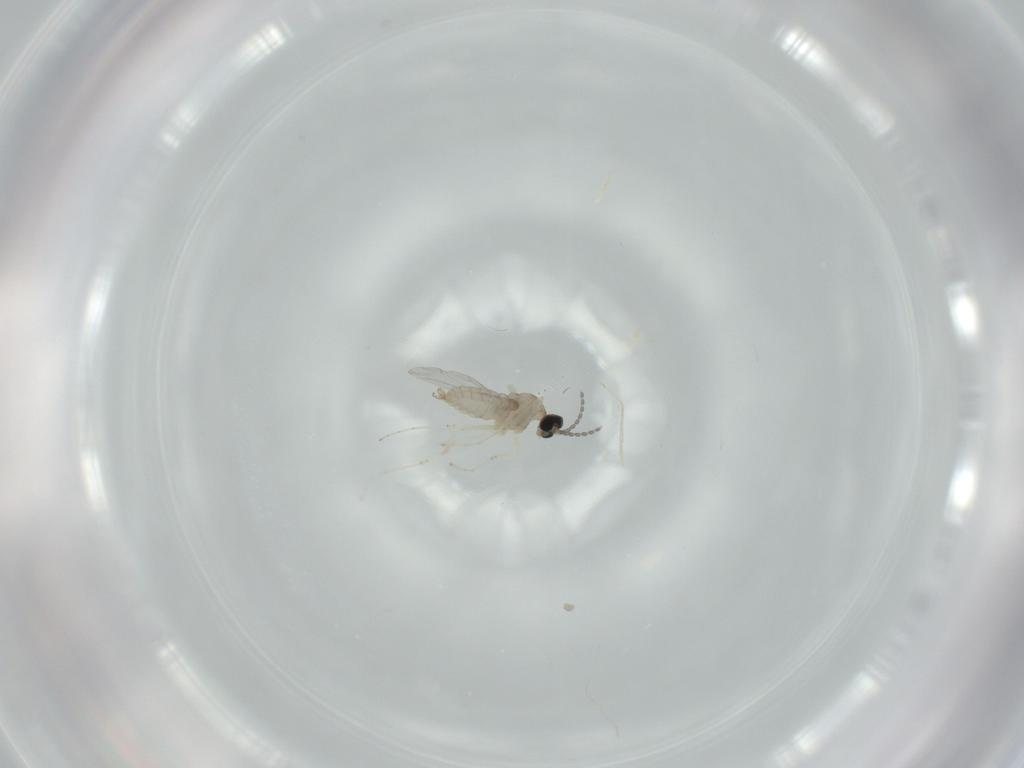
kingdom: Animalia
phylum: Arthropoda
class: Insecta
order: Diptera
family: Cecidomyiidae
